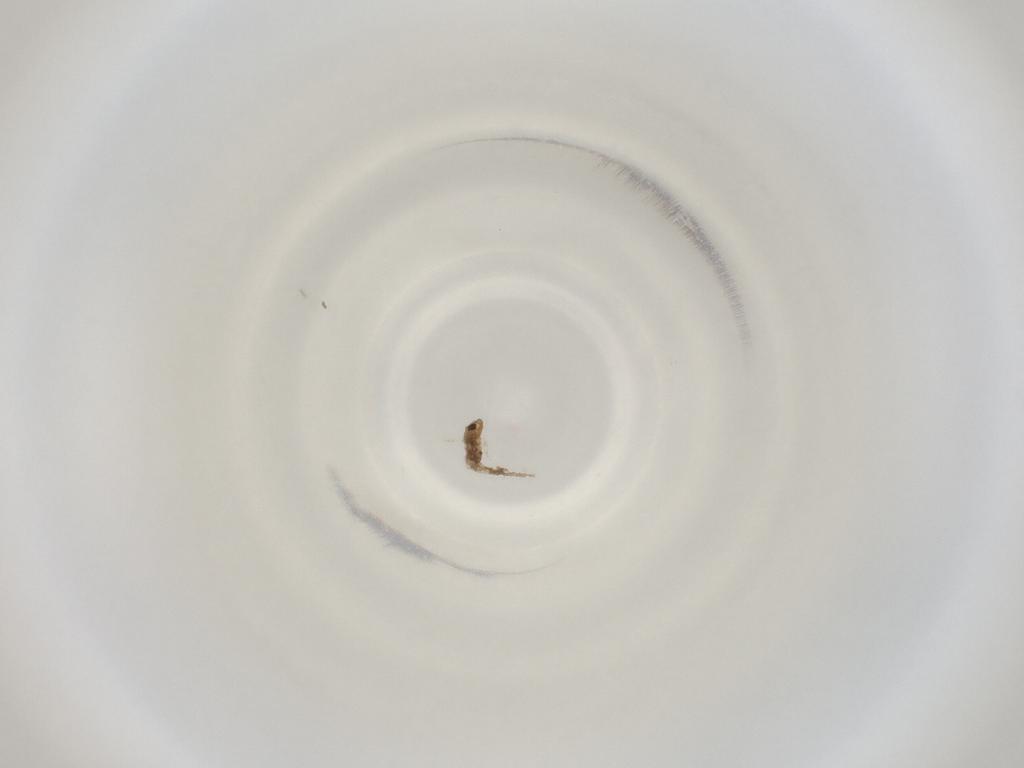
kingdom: Animalia
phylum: Arthropoda
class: Insecta
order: Diptera
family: Cecidomyiidae
